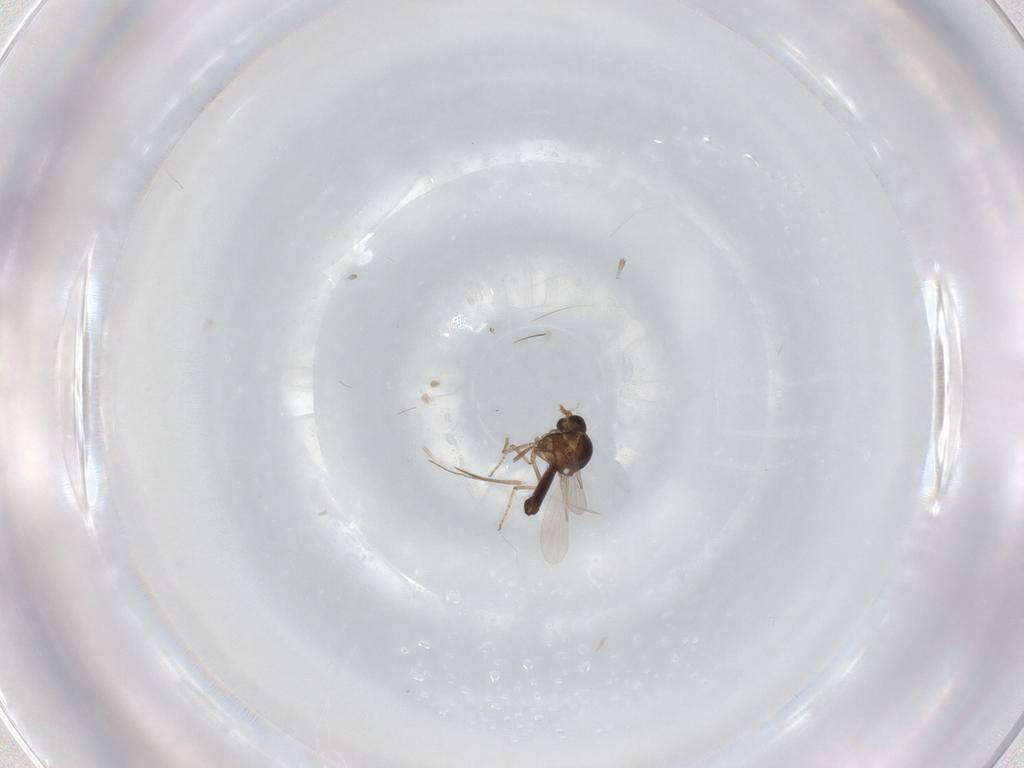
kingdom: Animalia
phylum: Arthropoda
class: Insecta
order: Diptera
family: Ceratopogonidae
